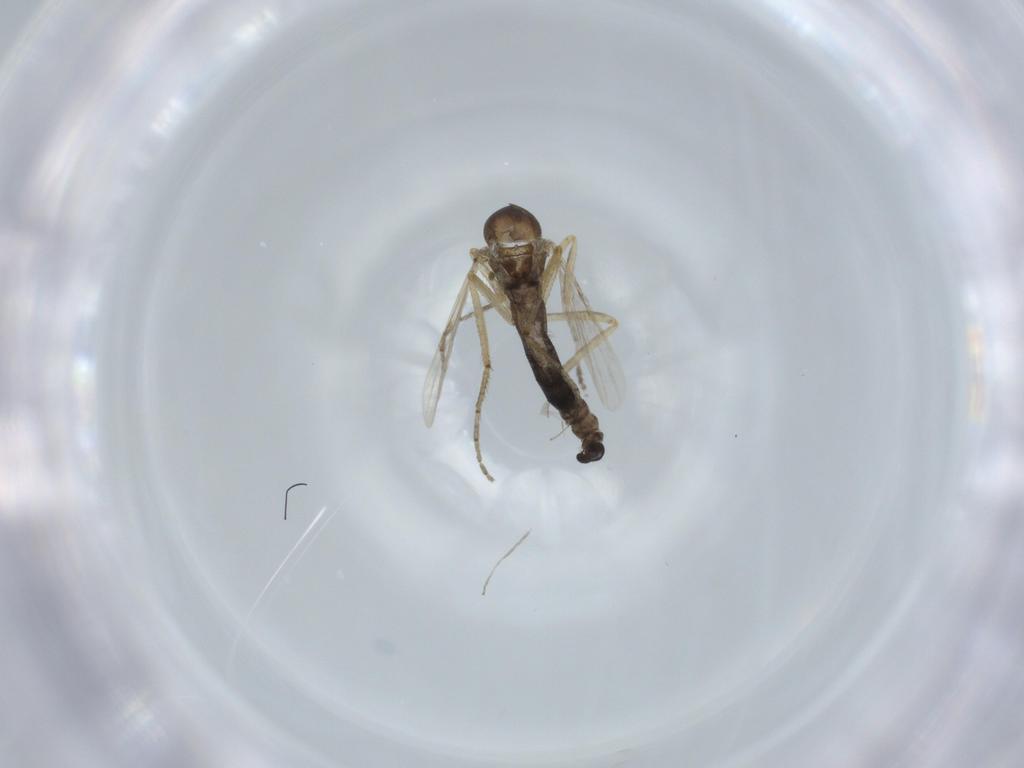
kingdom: Animalia
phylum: Arthropoda
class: Insecta
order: Diptera
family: Ceratopogonidae
